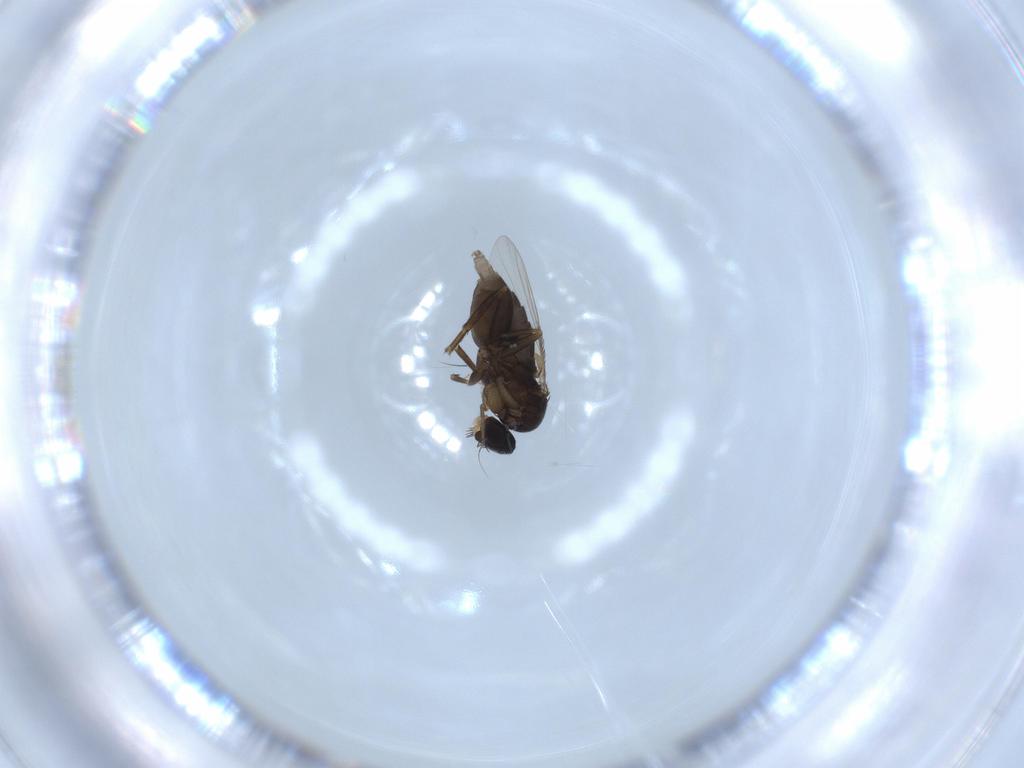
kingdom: Animalia
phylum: Arthropoda
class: Insecta
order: Diptera
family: Phoridae
